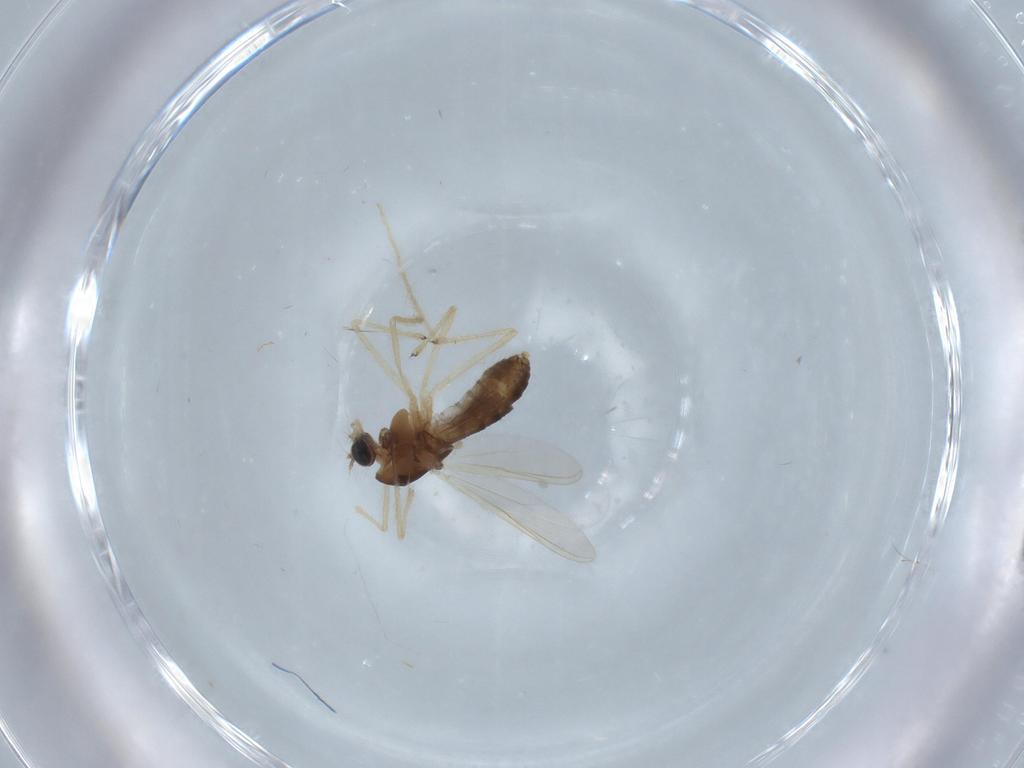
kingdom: Animalia
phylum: Arthropoda
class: Insecta
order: Diptera
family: Chironomidae
